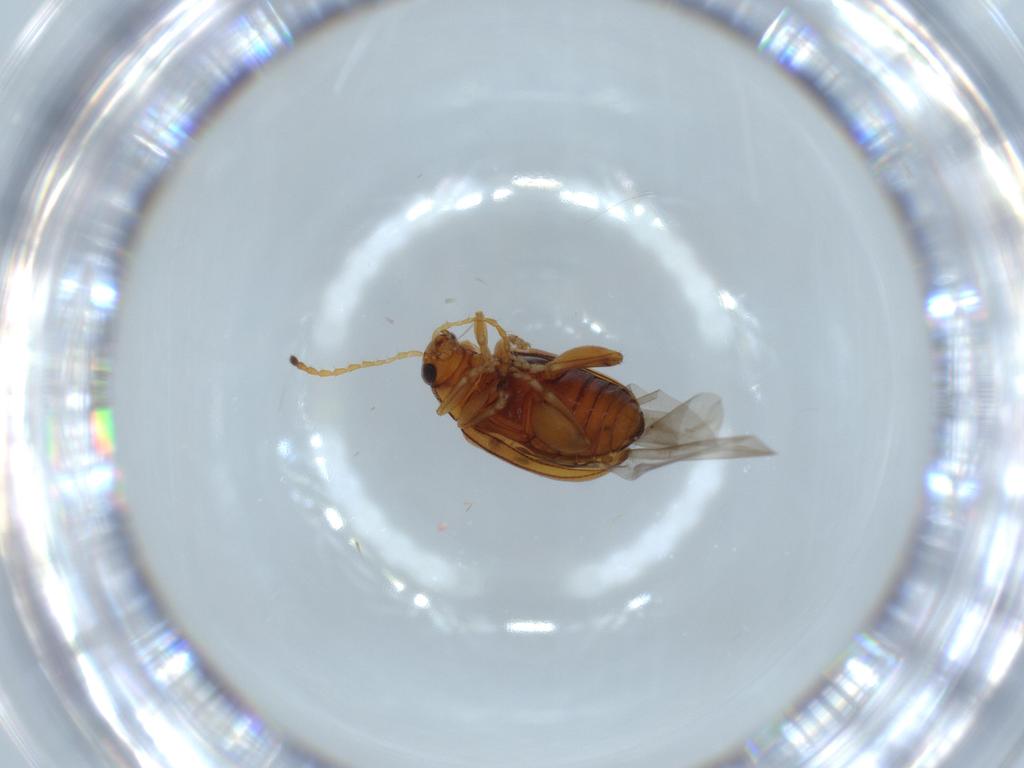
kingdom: Animalia
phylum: Arthropoda
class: Insecta
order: Coleoptera
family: Chrysomelidae
